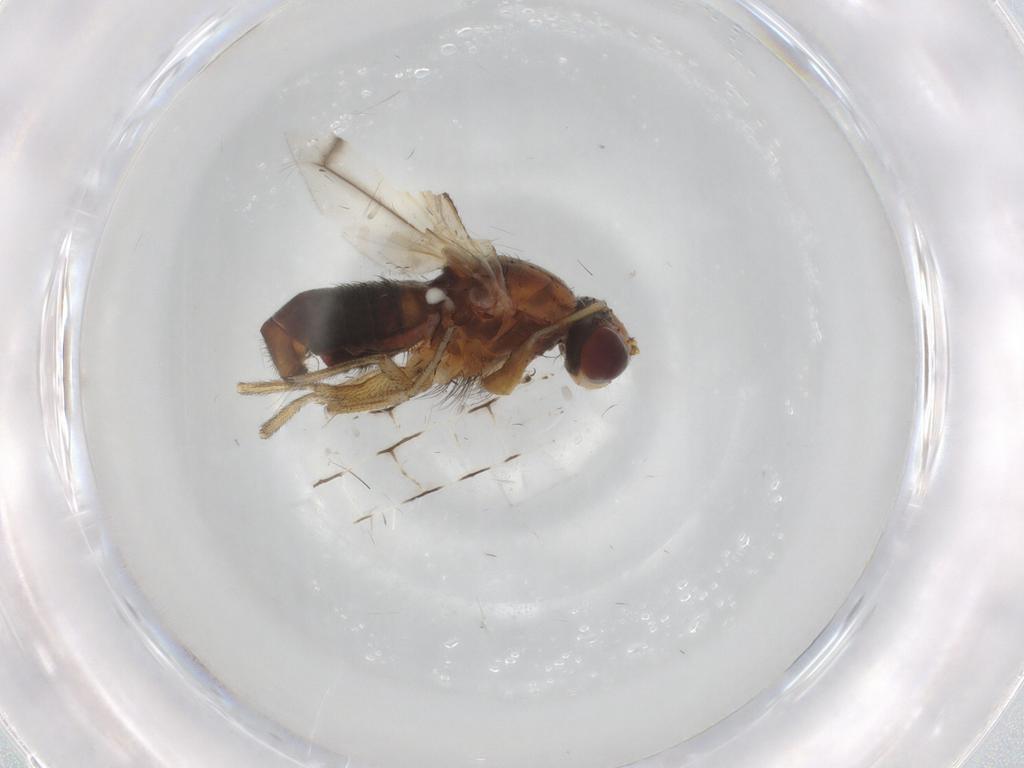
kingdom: Animalia
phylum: Arthropoda
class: Insecta
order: Diptera
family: Heleomyzidae
